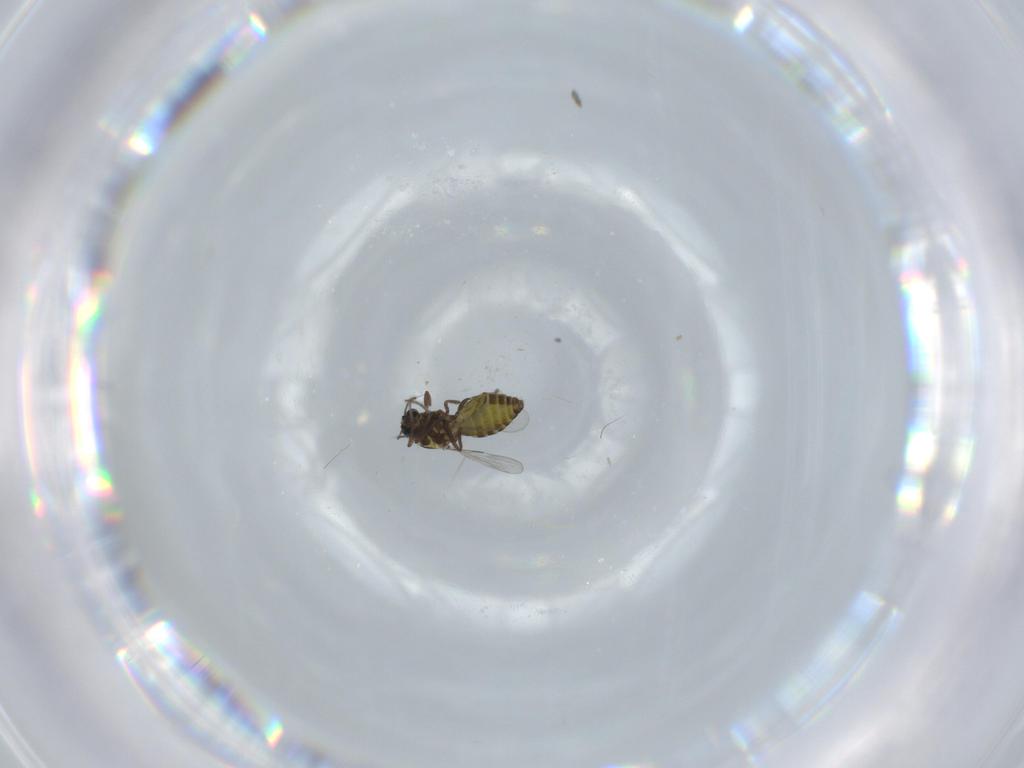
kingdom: Animalia
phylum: Arthropoda
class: Insecta
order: Diptera
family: Ceratopogonidae
